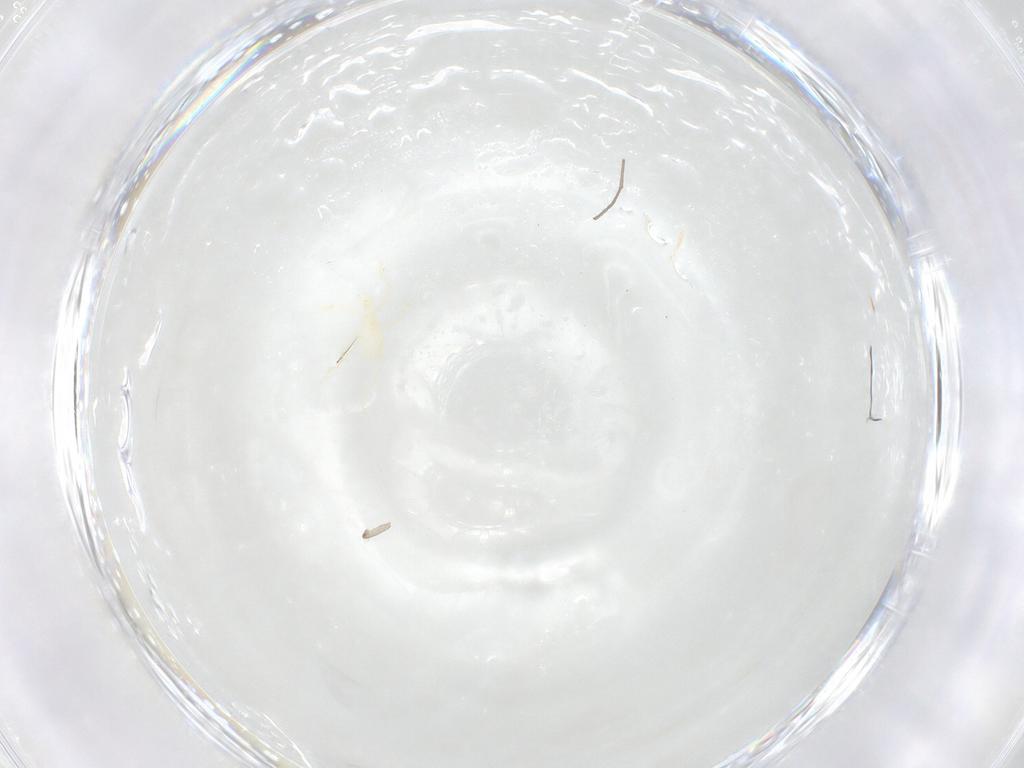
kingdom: Animalia
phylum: Arthropoda
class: Arachnida
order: Trombidiformes
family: Erythraeidae
